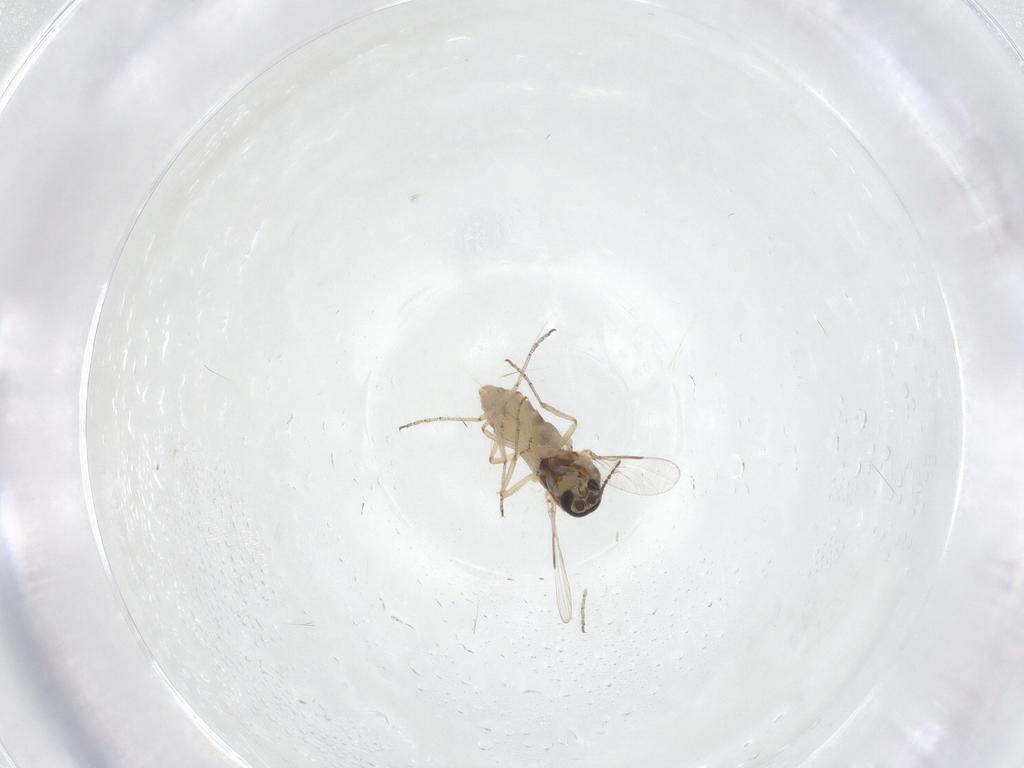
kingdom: Animalia
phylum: Arthropoda
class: Insecta
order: Diptera
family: Ceratopogonidae
